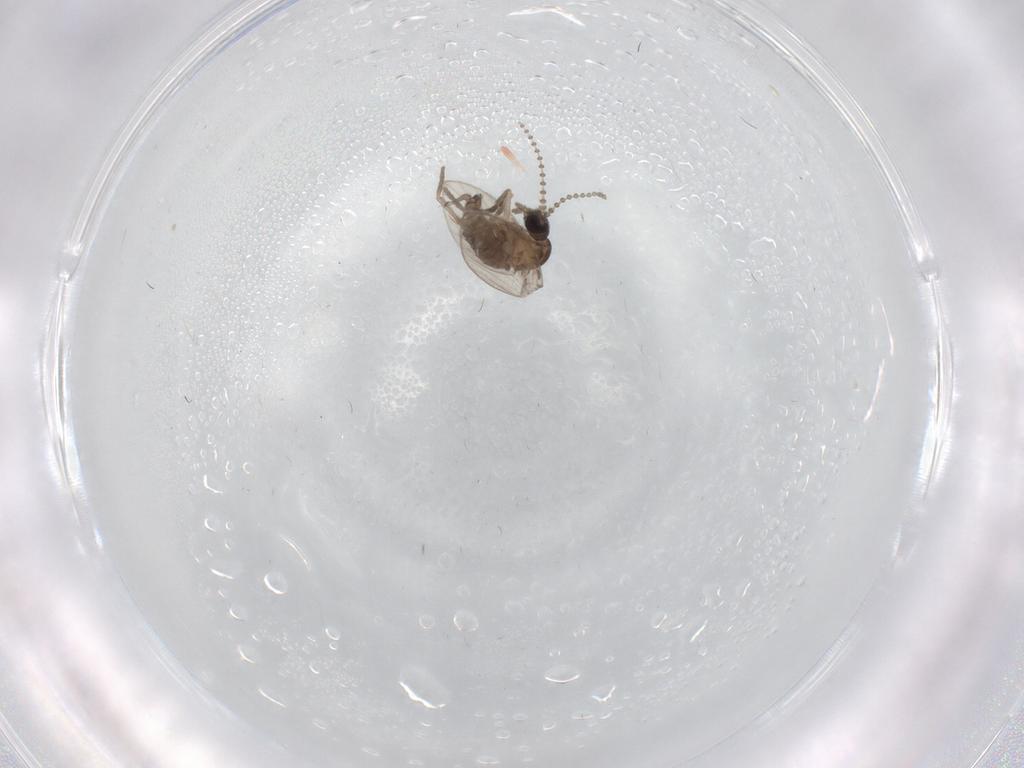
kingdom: Animalia
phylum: Arthropoda
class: Insecta
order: Diptera
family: Psychodidae
